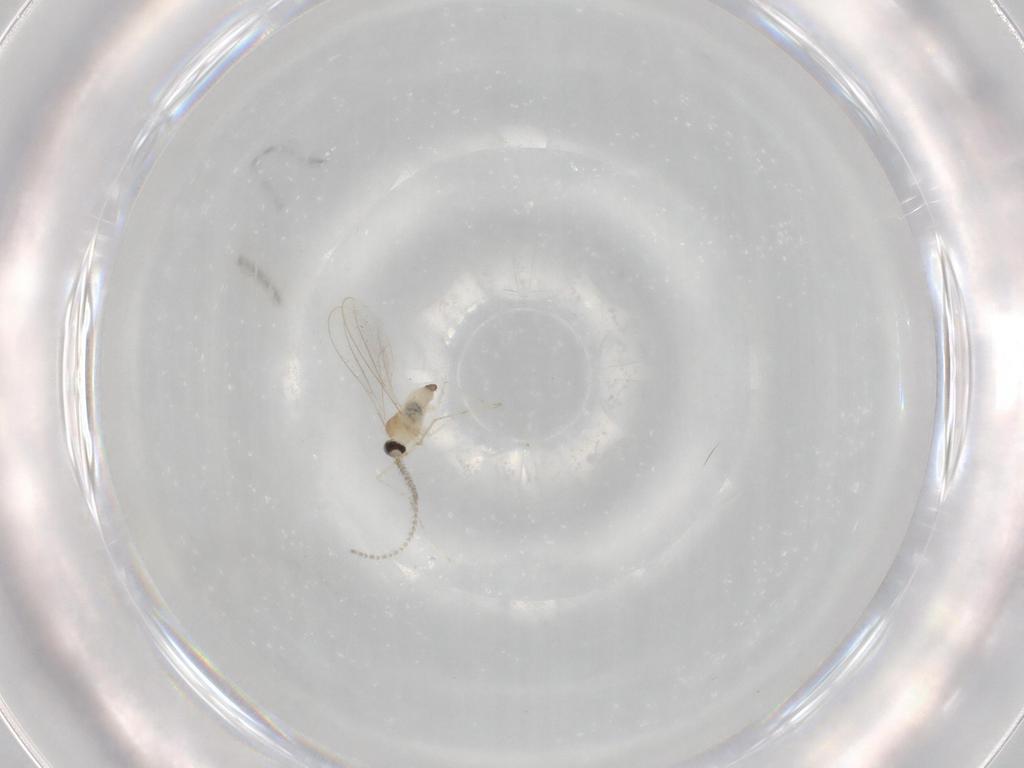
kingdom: Animalia
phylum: Arthropoda
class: Insecta
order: Diptera
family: Cecidomyiidae
